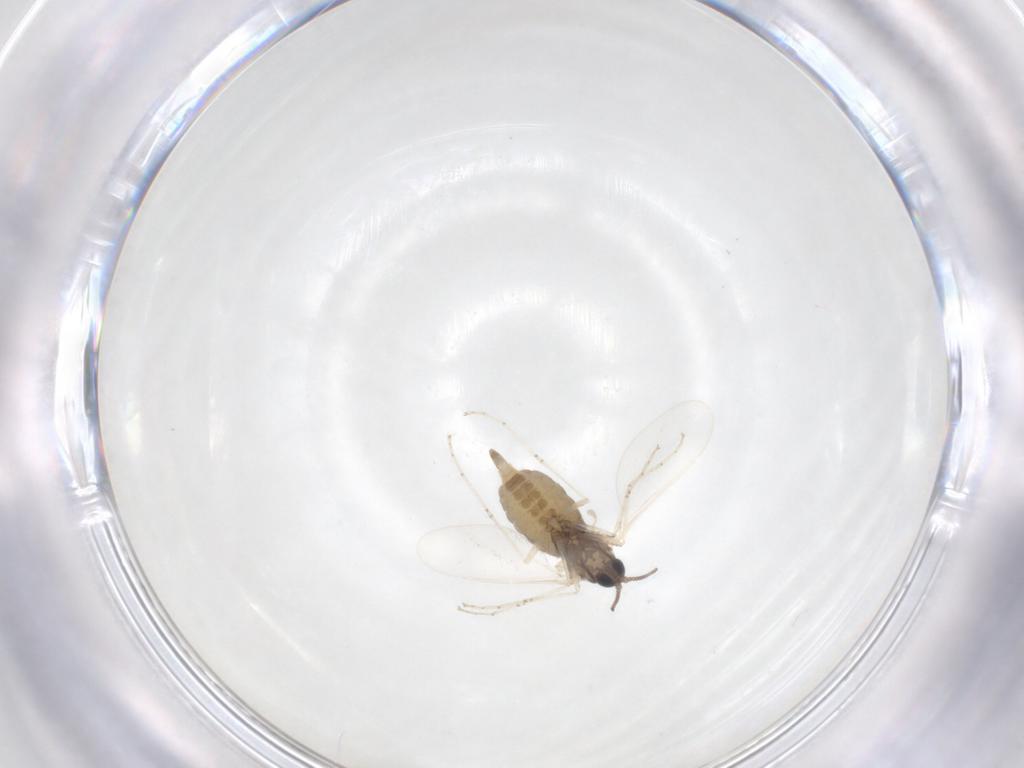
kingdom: Animalia
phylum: Arthropoda
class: Insecta
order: Diptera
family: Cecidomyiidae
